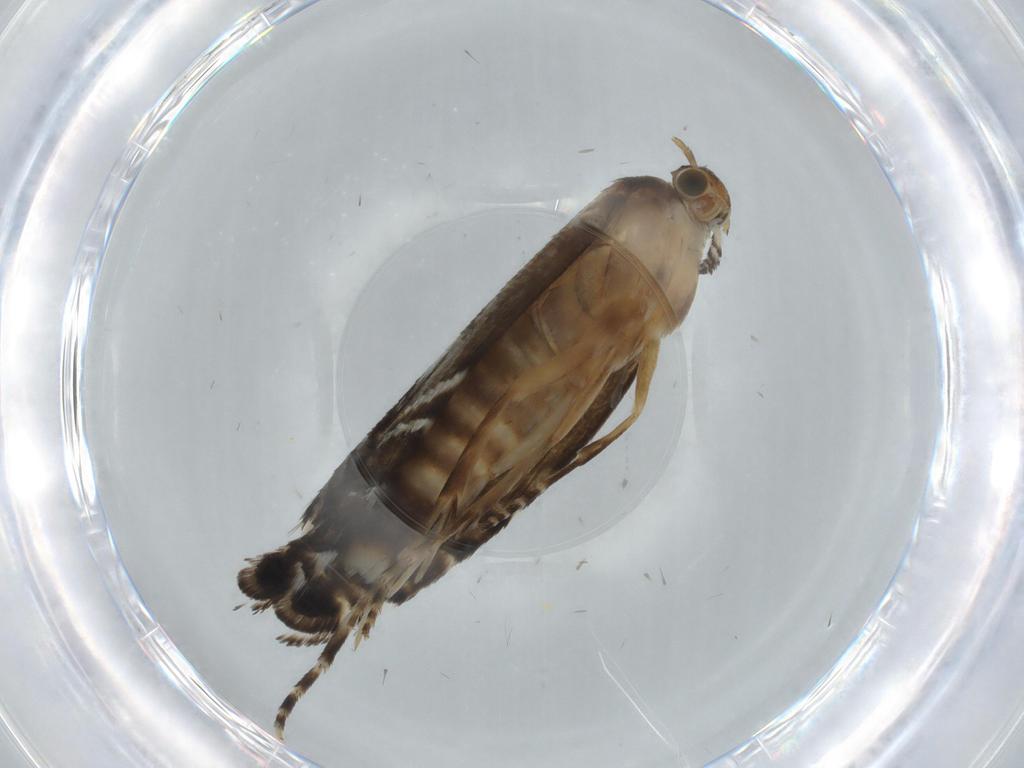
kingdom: Animalia
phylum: Arthropoda
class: Insecta
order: Lepidoptera
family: Glyphipterigidae
